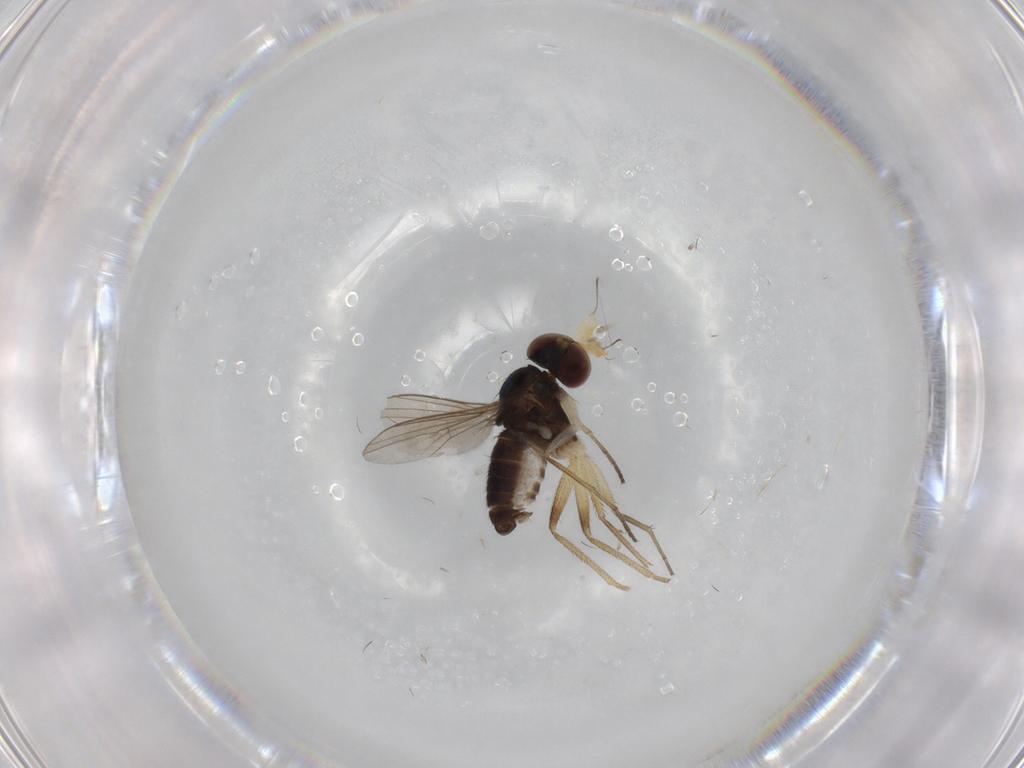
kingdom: Animalia
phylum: Arthropoda
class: Insecta
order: Diptera
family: Dolichopodidae
